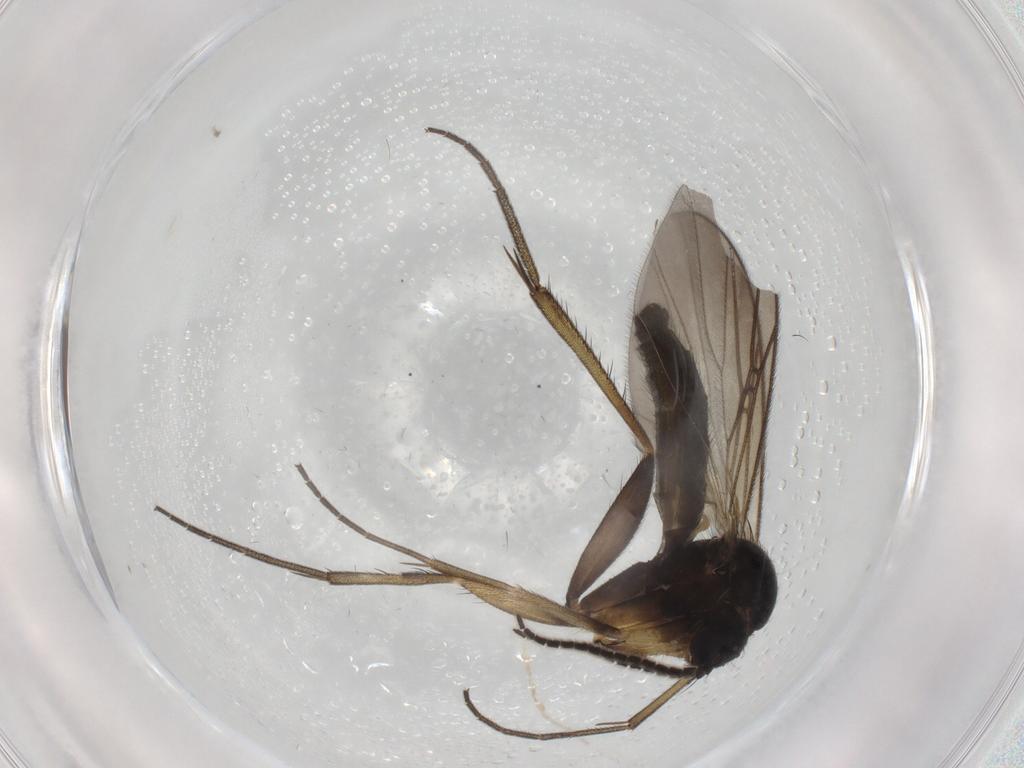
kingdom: Animalia
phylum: Arthropoda
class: Insecta
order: Diptera
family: Mycetophilidae
